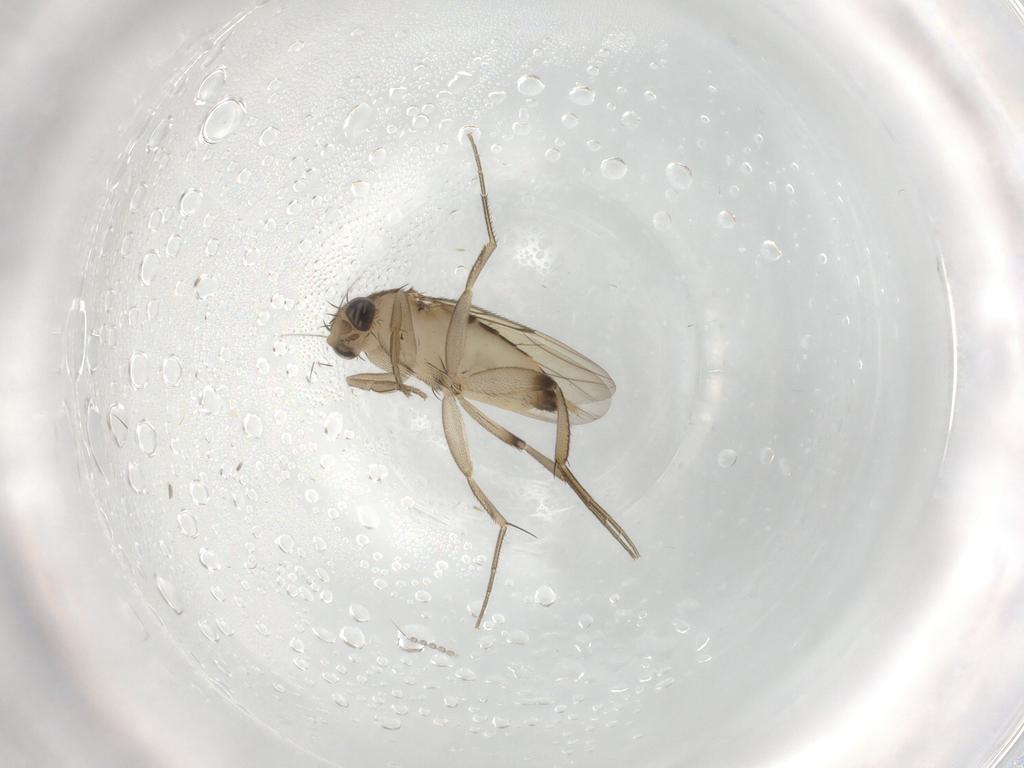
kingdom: Animalia
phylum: Arthropoda
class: Insecta
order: Diptera
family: Phoridae
